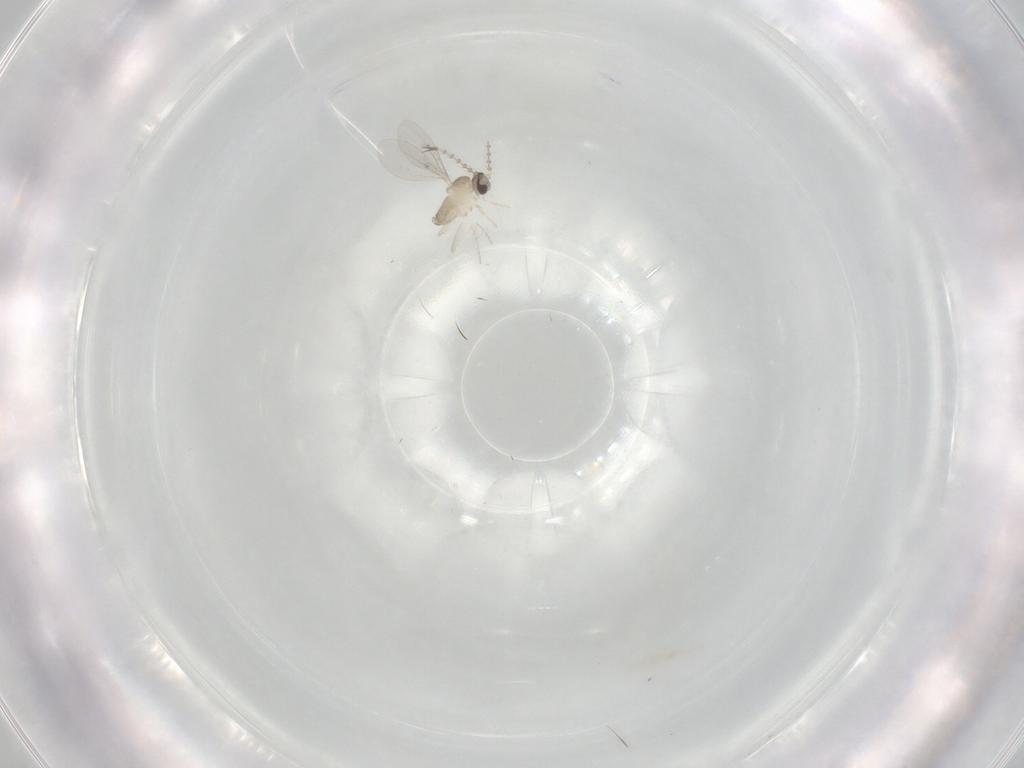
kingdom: Animalia
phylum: Arthropoda
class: Insecta
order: Diptera
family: Cecidomyiidae
